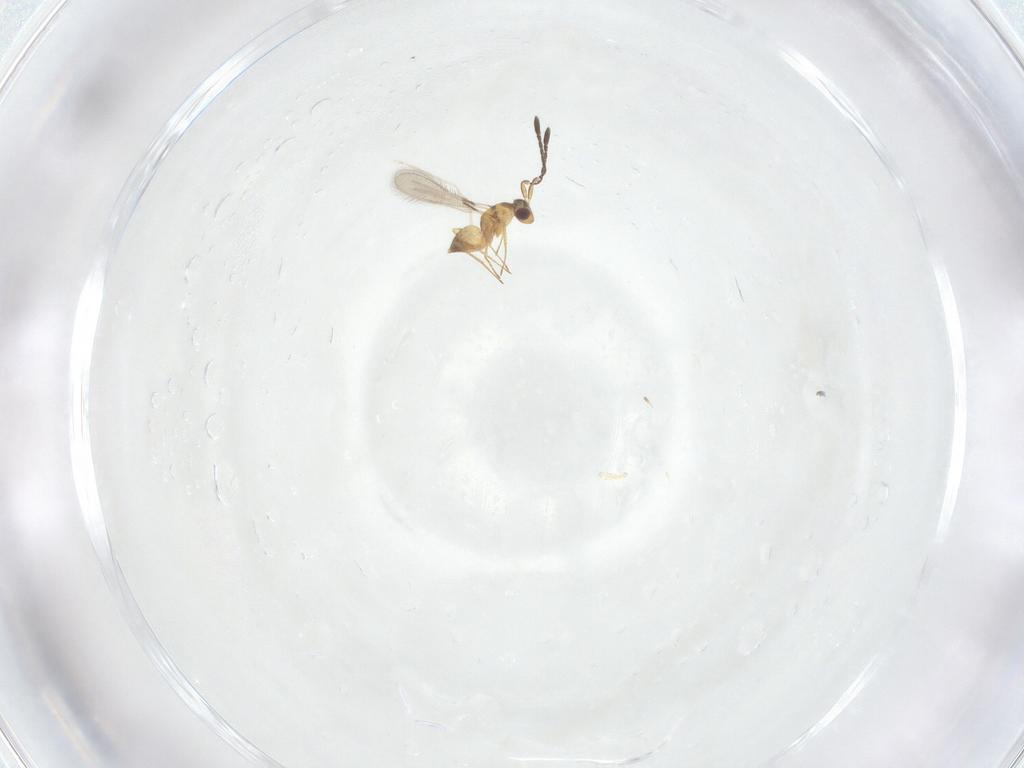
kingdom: Animalia
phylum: Arthropoda
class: Insecta
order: Hymenoptera
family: Mymaridae
